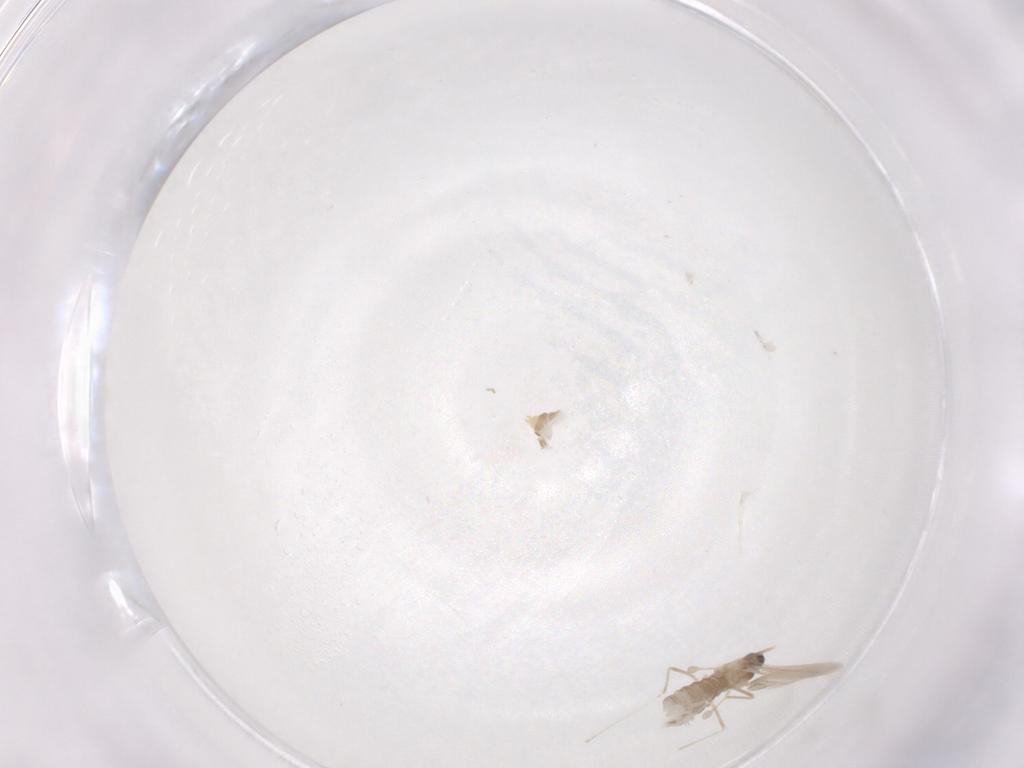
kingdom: Animalia
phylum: Arthropoda
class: Insecta
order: Diptera
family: Cecidomyiidae
